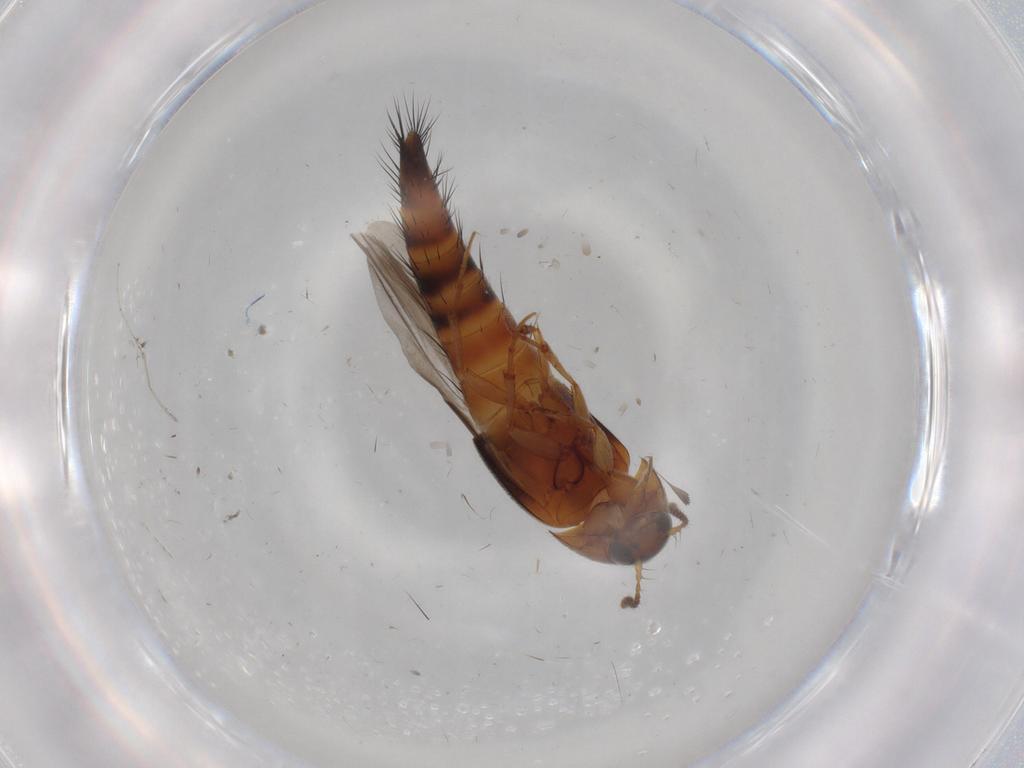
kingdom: Animalia
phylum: Arthropoda
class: Insecta
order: Coleoptera
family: Staphylinidae
